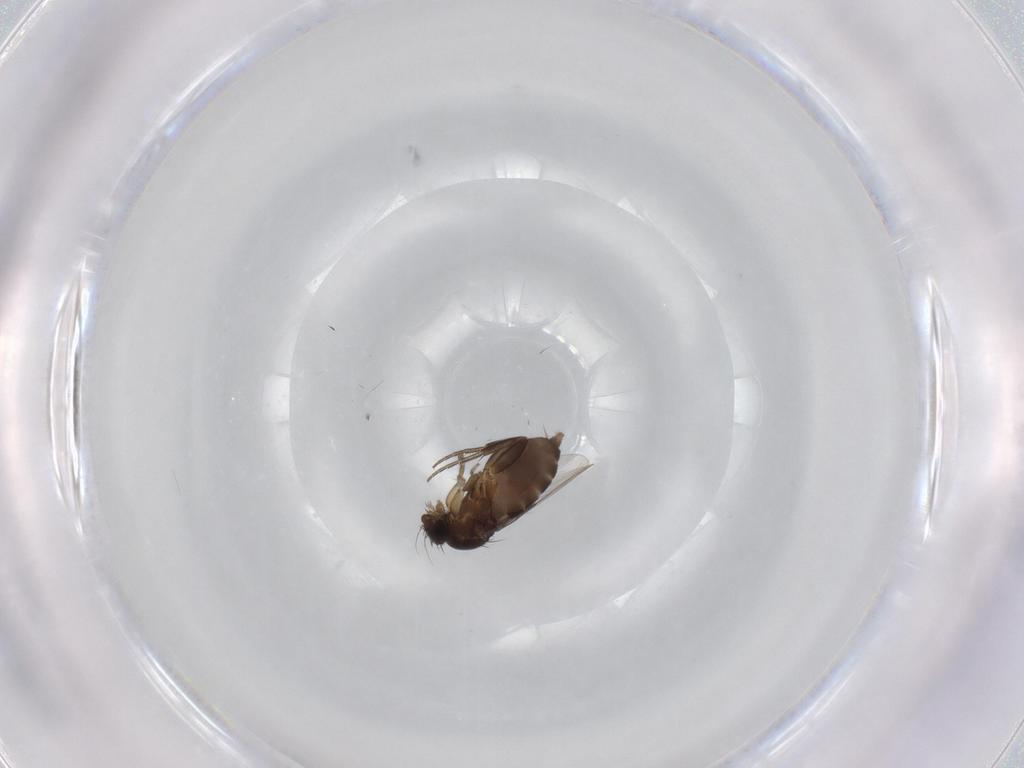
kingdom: Animalia
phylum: Arthropoda
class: Insecta
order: Diptera
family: Phoridae
